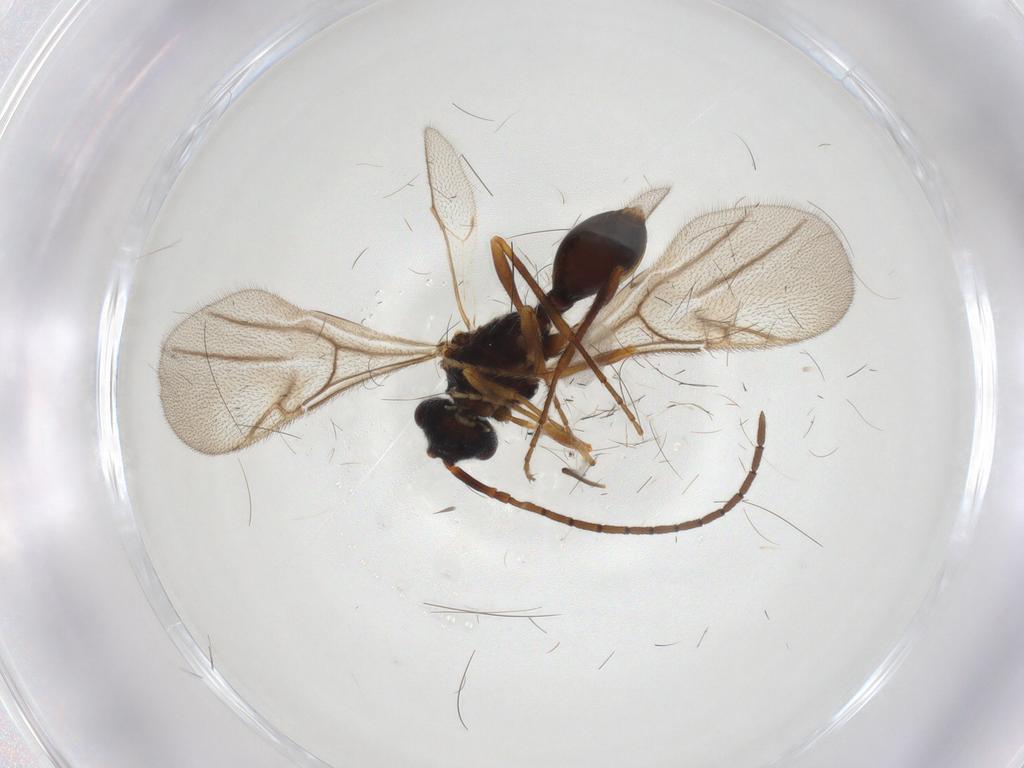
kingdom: Animalia
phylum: Arthropoda
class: Insecta
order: Hymenoptera
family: Diapriidae
